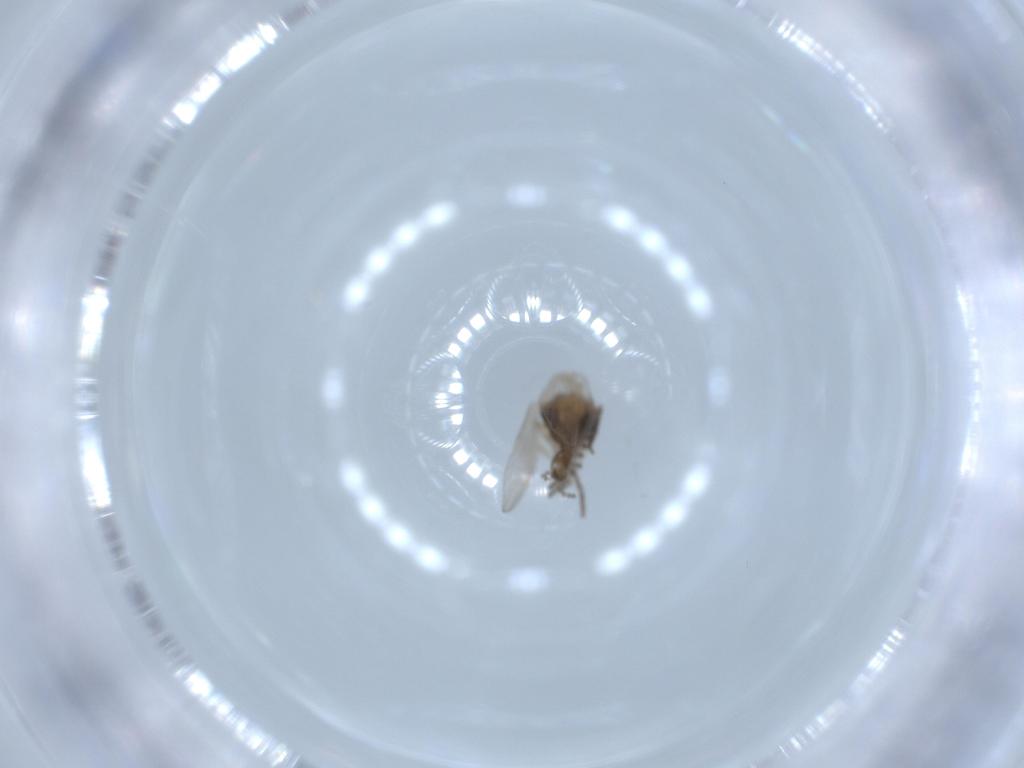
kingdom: Animalia
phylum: Arthropoda
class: Insecta
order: Diptera
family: Psychodidae
